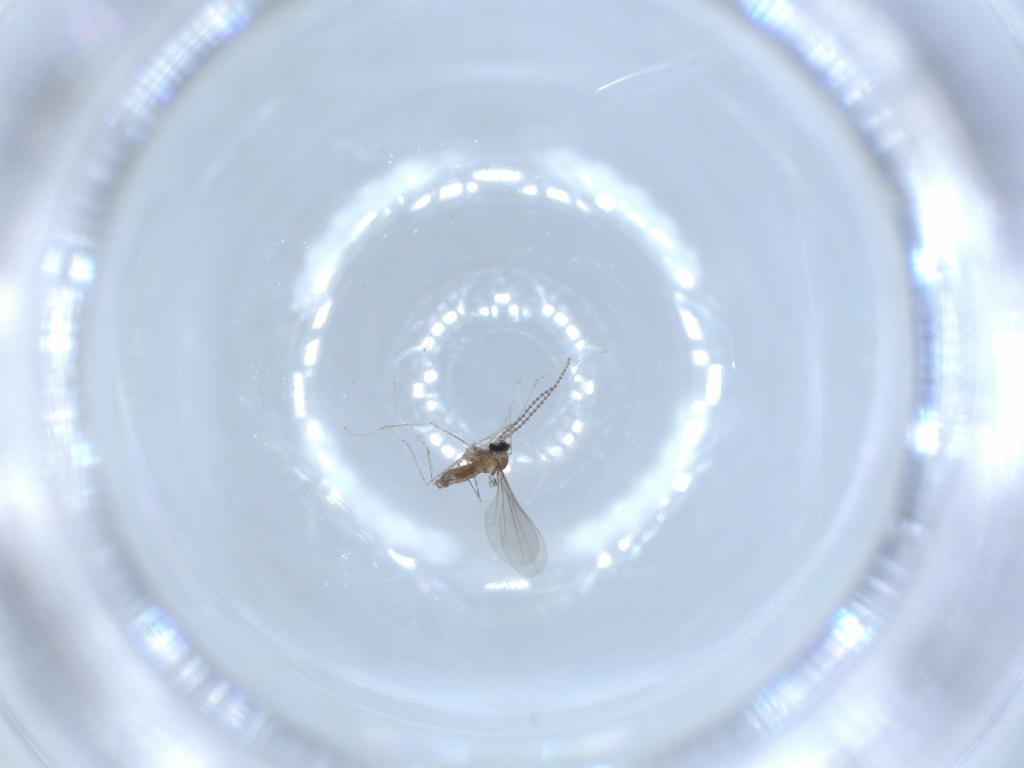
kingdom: Animalia
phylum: Arthropoda
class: Insecta
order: Diptera
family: Cecidomyiidae
